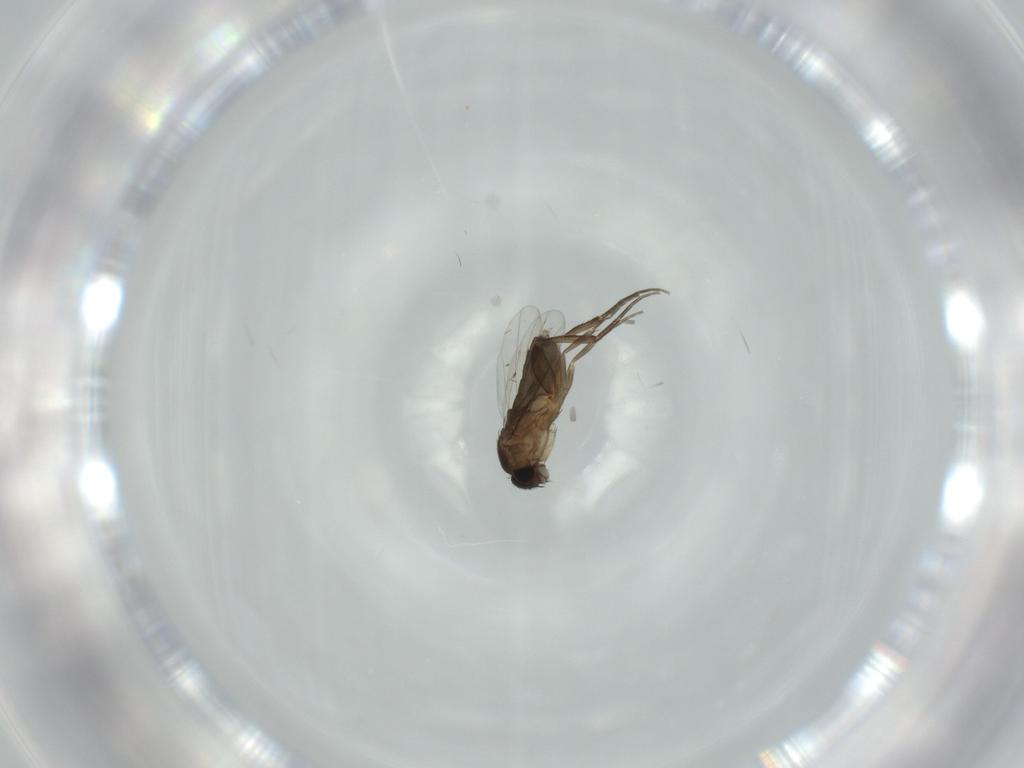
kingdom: Animalia
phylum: Arthropoda
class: Insecta
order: Diptera
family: Phoridae
